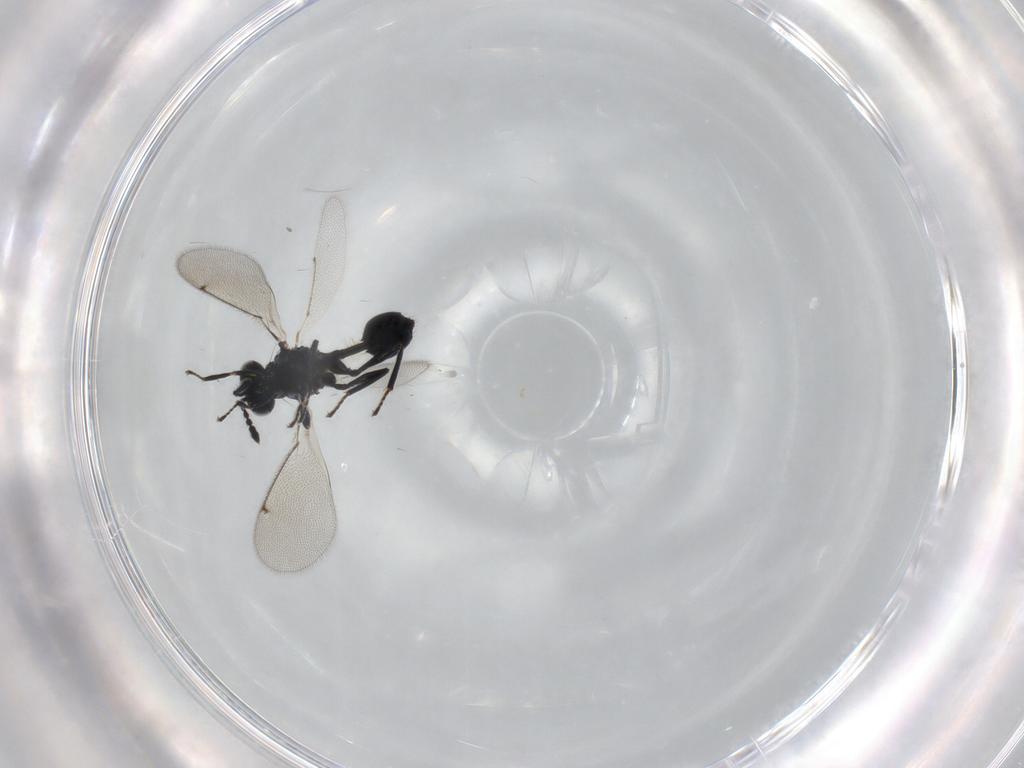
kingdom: Animalia
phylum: Arthropoda
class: Insecta
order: Hymenoptera
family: Eulophidae
